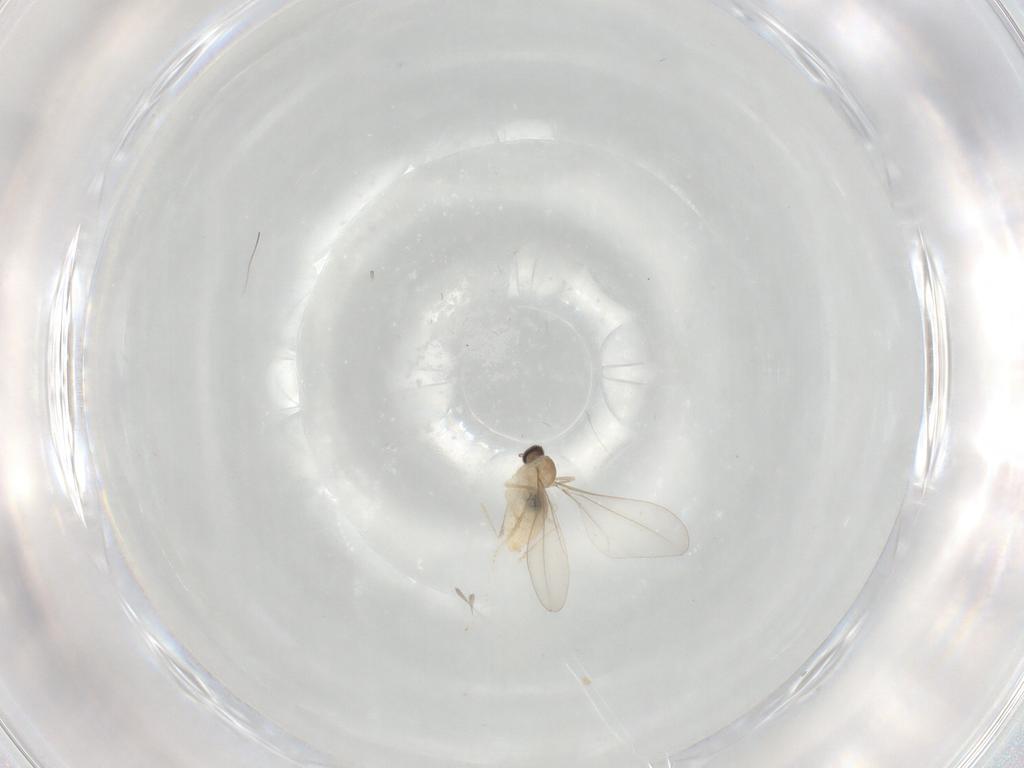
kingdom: Animalia
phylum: Arthropoda
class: Insecta
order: Diptera
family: Cecidomyiidae
